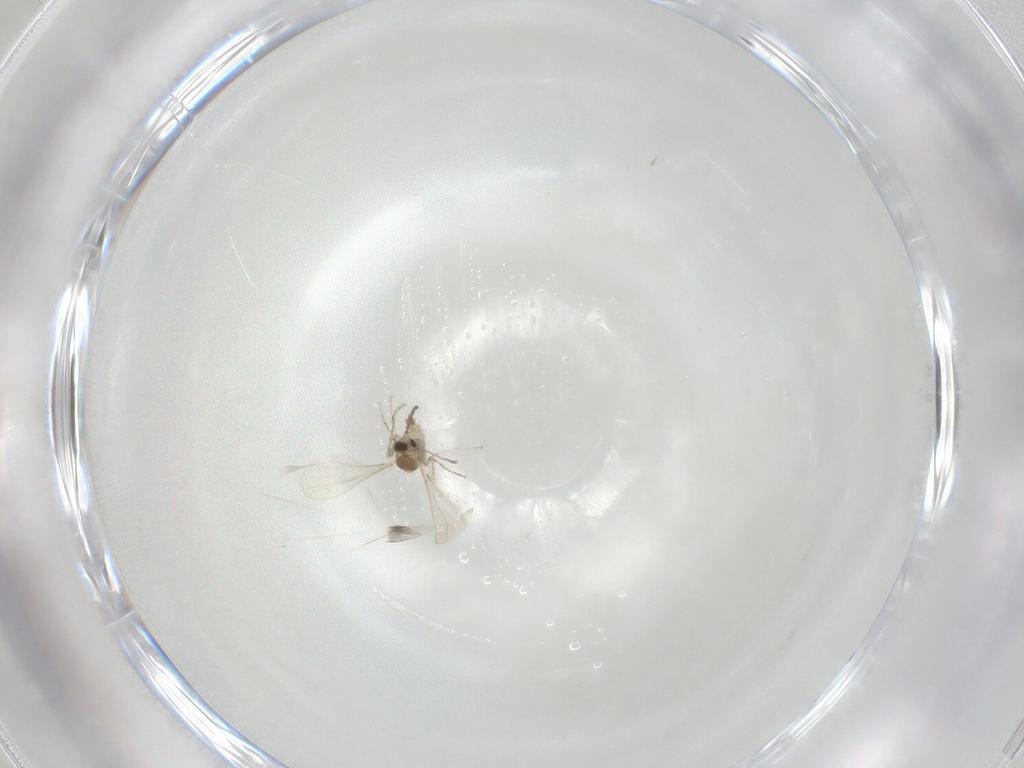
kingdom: Animalia
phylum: Arthropoda
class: Insecta
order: Diptera
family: Cecidomyiidae
